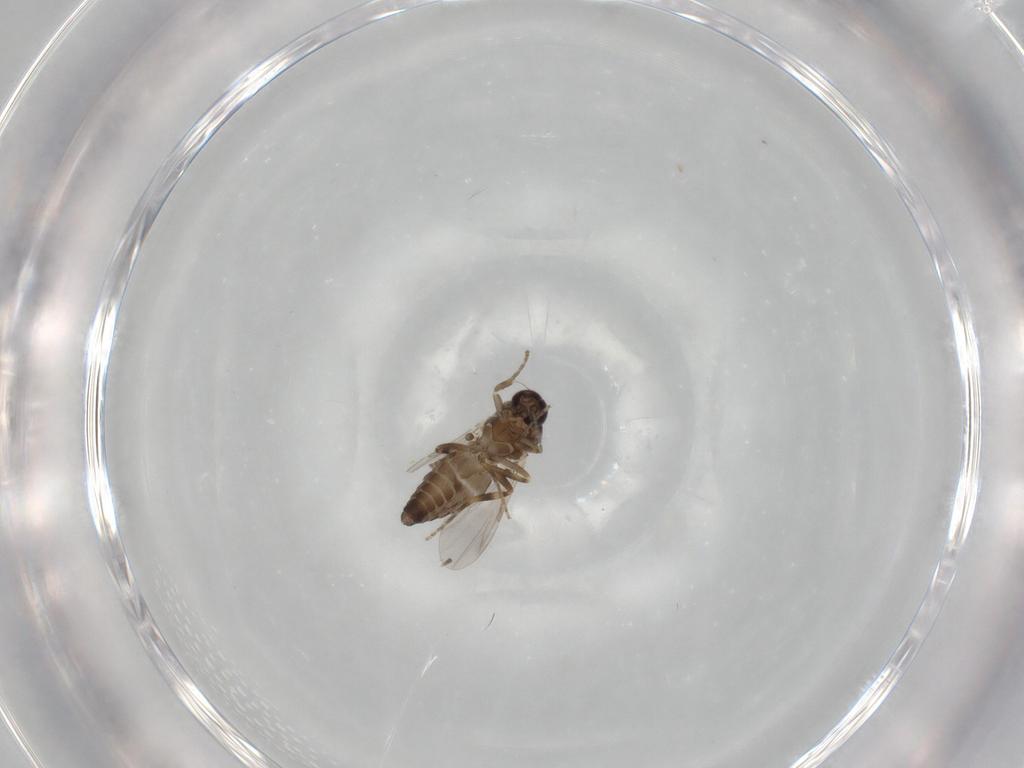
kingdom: Animalia
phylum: Arthropoda
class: Insecta
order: Diptera
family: Ceratopogonidae
